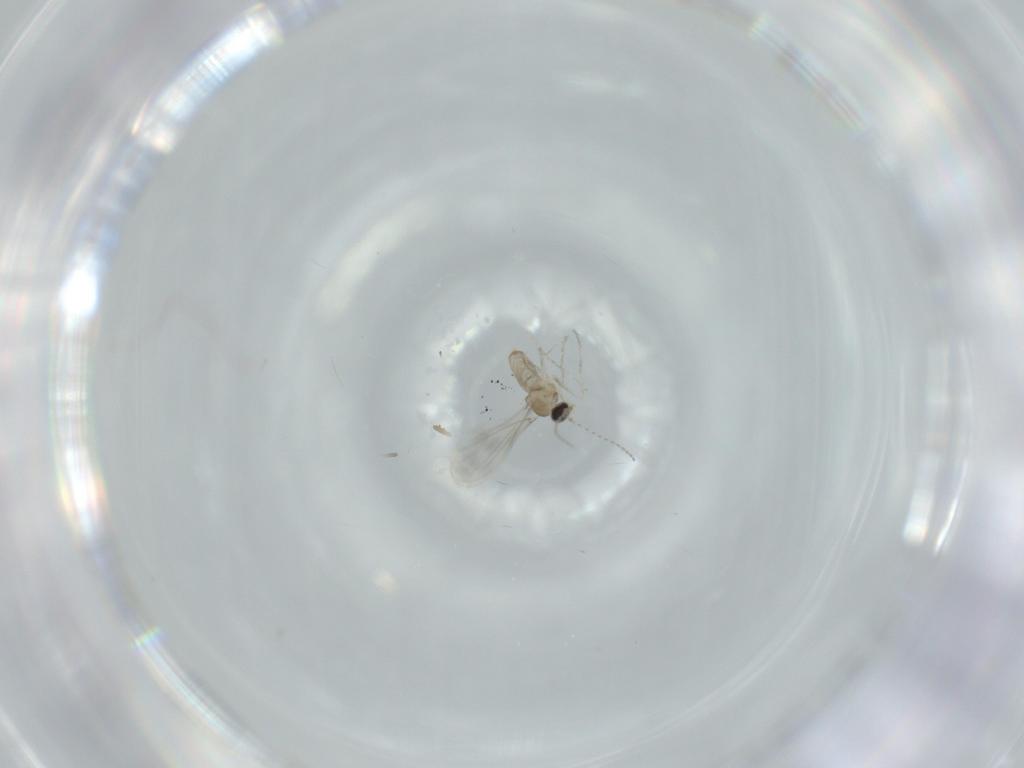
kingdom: Animalia
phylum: Arthropoda
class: Insecta
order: Diptera
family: Cecidomyiidae
